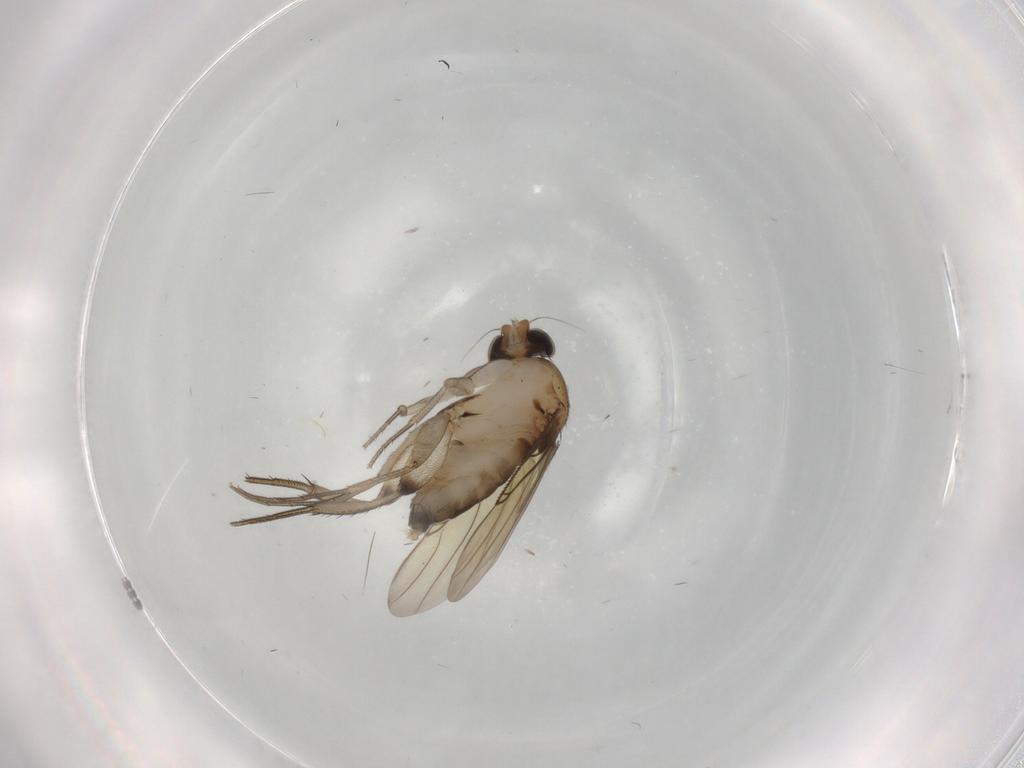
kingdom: Animalia
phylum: Arthropoda
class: Insecta
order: Diptera
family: Phoridae
